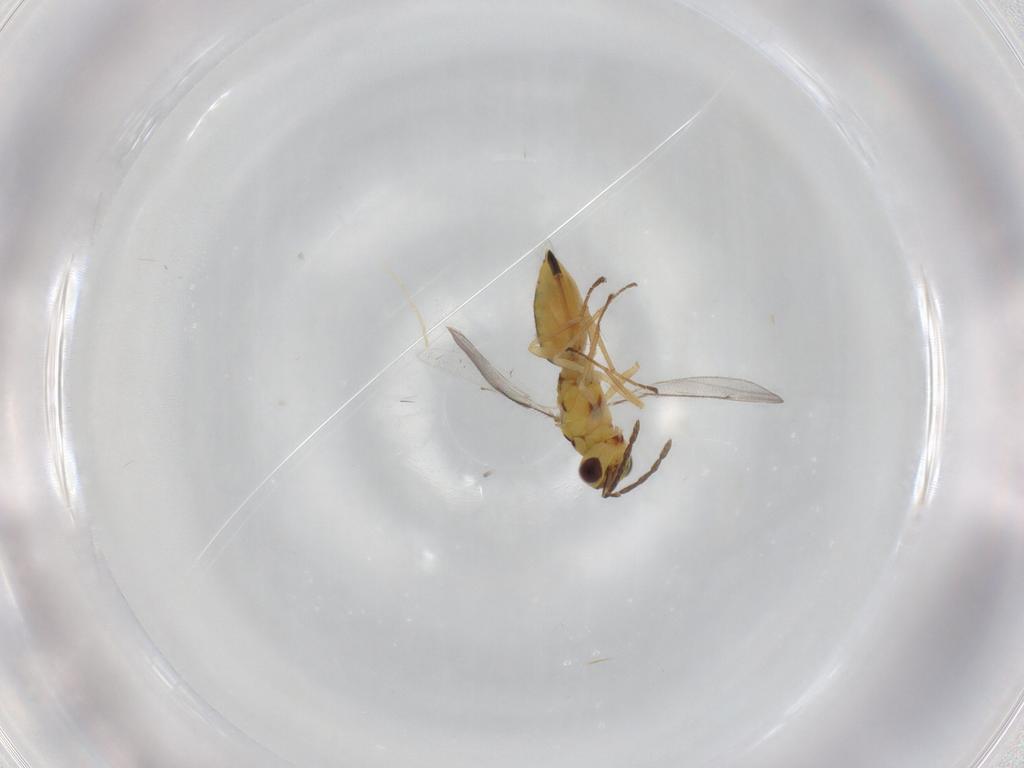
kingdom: Animalia
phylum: Arthropoda
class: Insecta
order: Hymenoptera
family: Eulophidae
